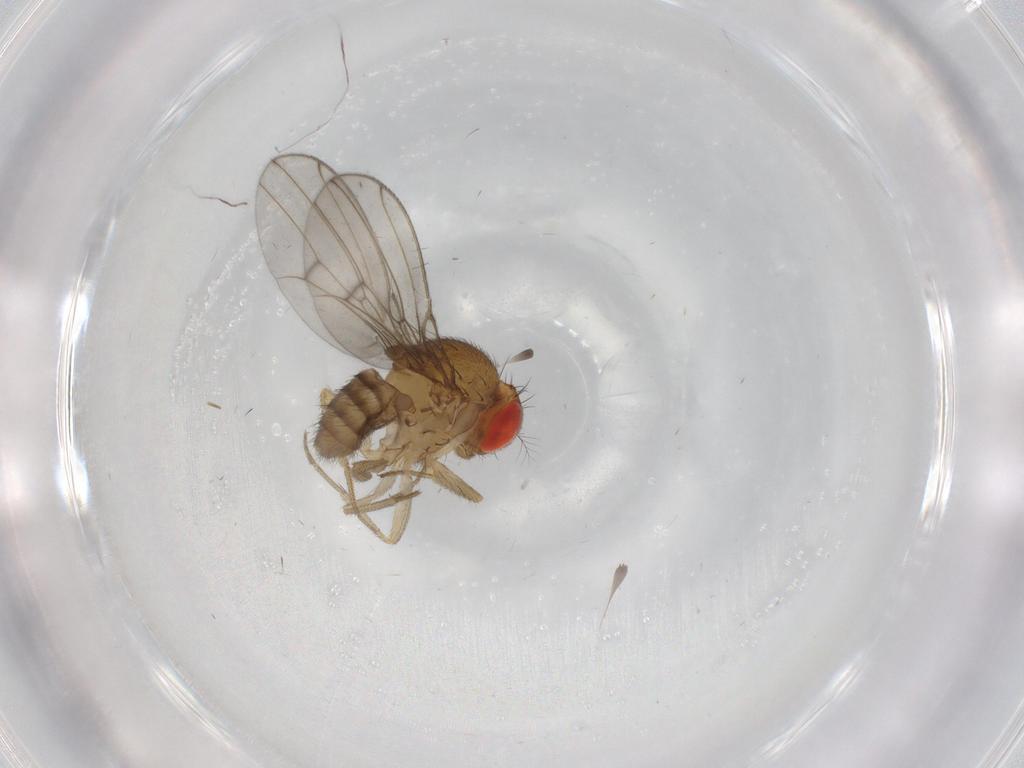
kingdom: Animalia
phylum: Arthropoda
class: Insecta
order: Diptera
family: Drosophilidae
